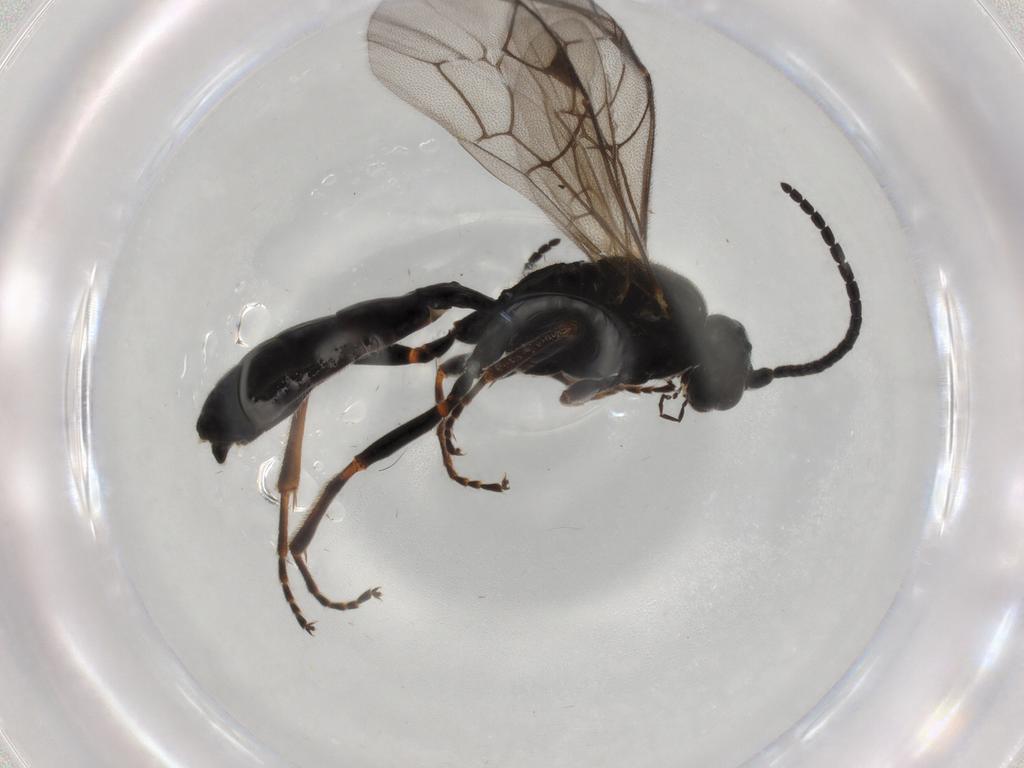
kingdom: Animalia
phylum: Arthropoda
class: Insecta
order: Hymenoptera
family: Ichneumonidae
